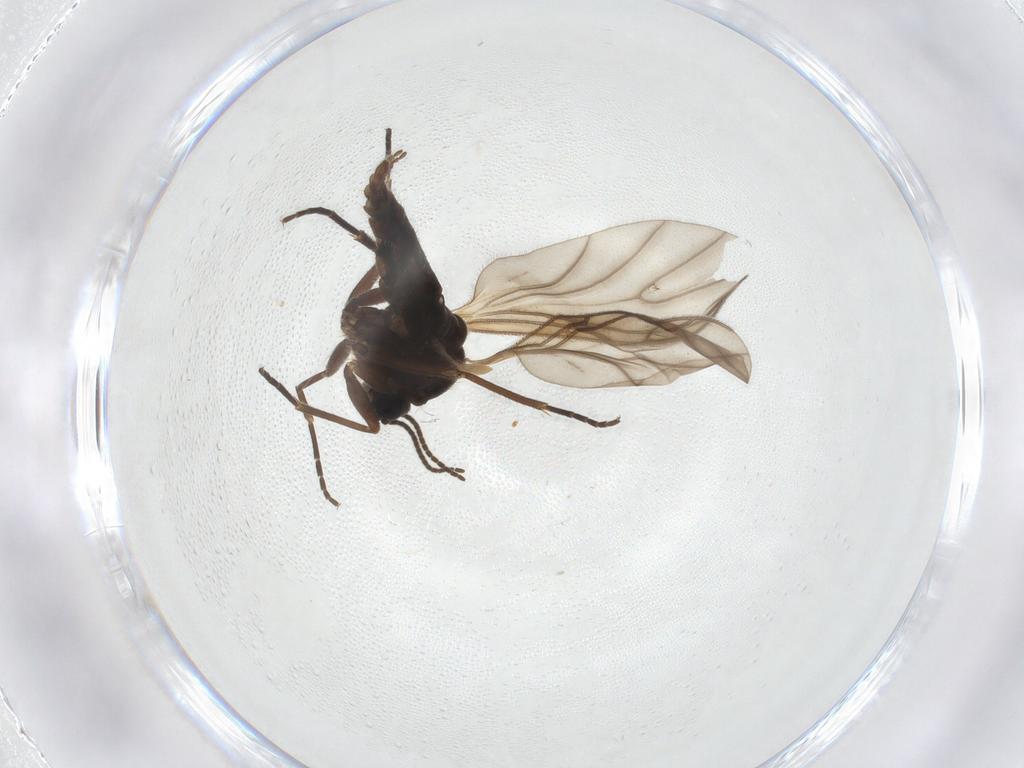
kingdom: Animalia
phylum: Arthropoda
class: Insecta
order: Diptera
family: Sciaridae
